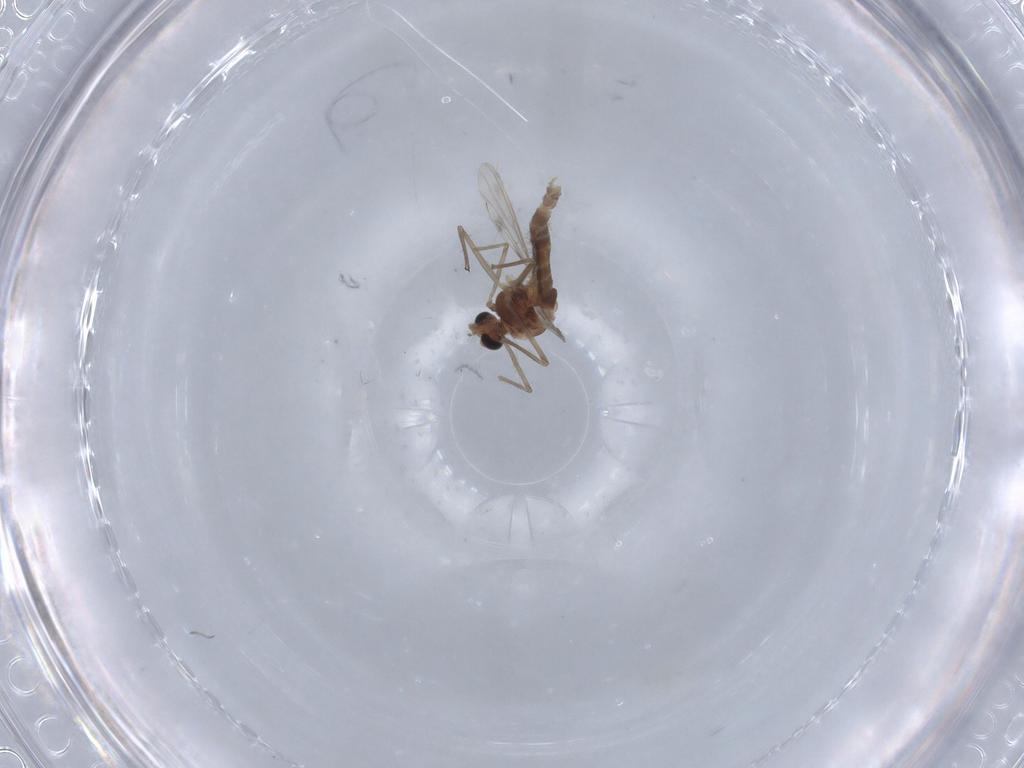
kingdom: Animalia
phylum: Arthropoda
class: Insecta
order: Diptera
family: Chironomidae
